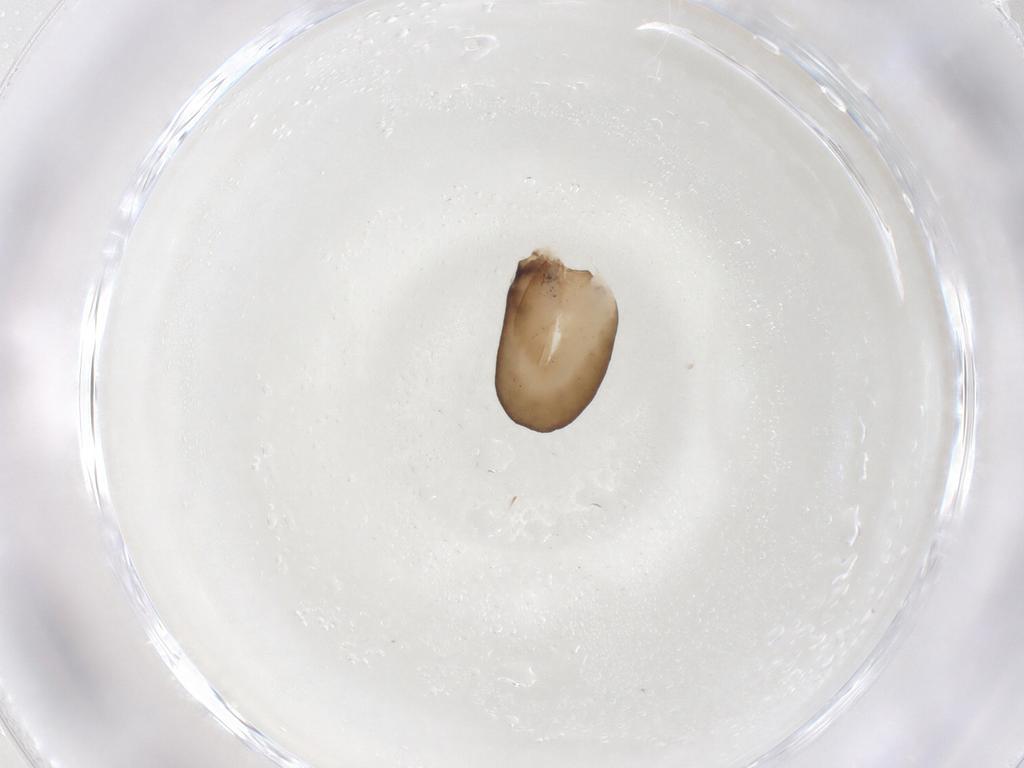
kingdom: Animalia
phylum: Arthropoda
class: Insecta
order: Hymenoptera
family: Dryinidae
